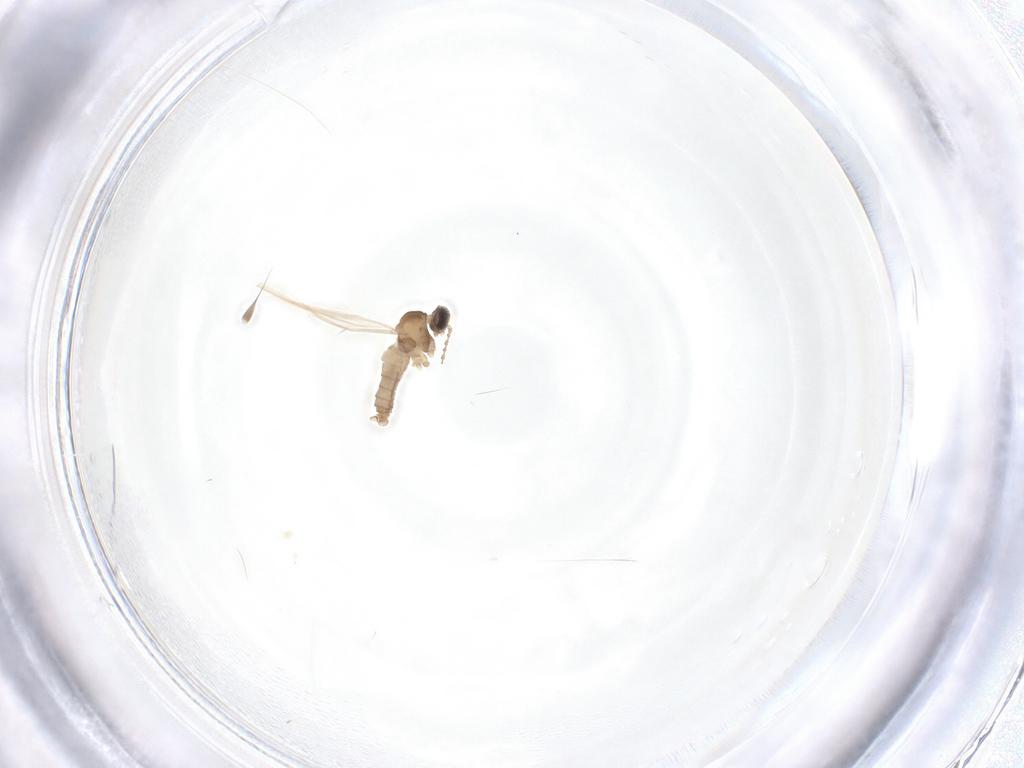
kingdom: Animalia
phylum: Arthropoda
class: Insecta
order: Diptera
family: Cecidomyiidae
